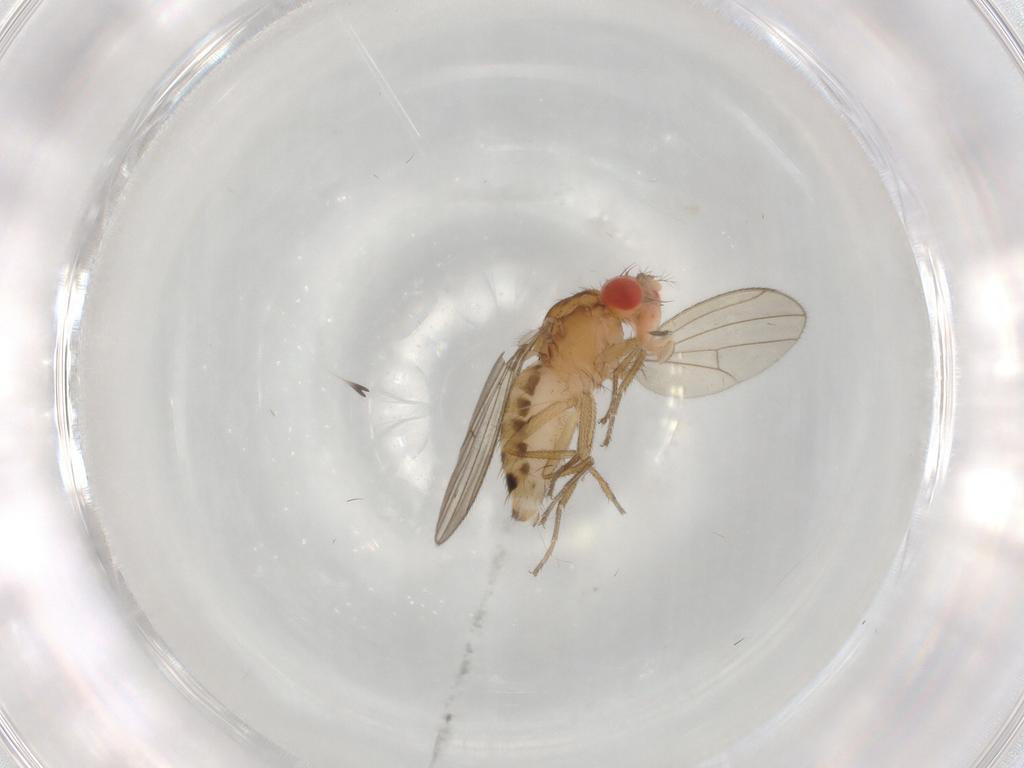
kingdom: Animalia
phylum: Arthropoda
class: Insecta
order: Diptera
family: Drosophilidae
